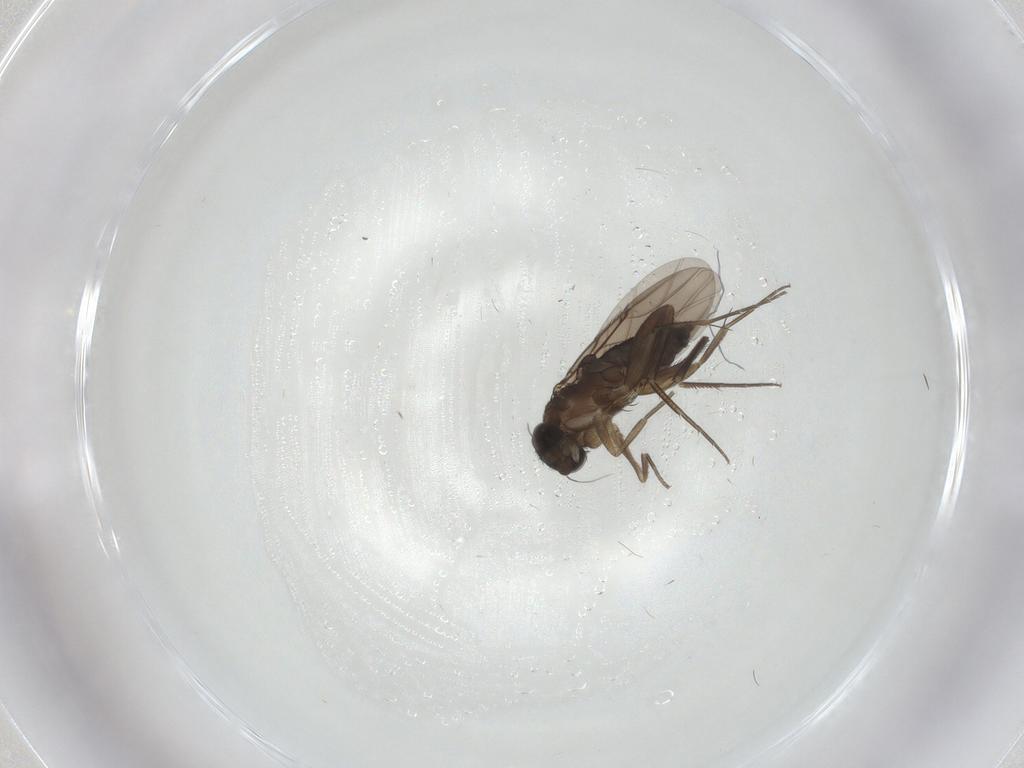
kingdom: Animalia
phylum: Arthropoda
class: Insecta
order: Diptera
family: Phoridae
